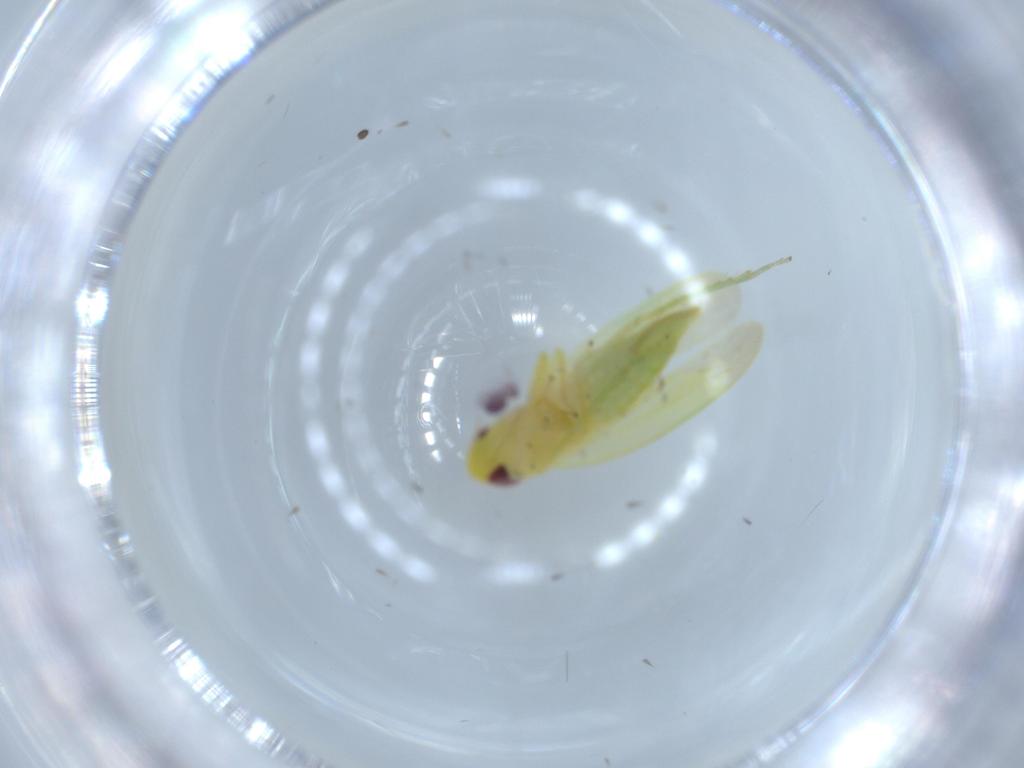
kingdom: Animalia
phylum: Arthropoda
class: Insecta
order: Hemiptera
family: Cicadellidae
